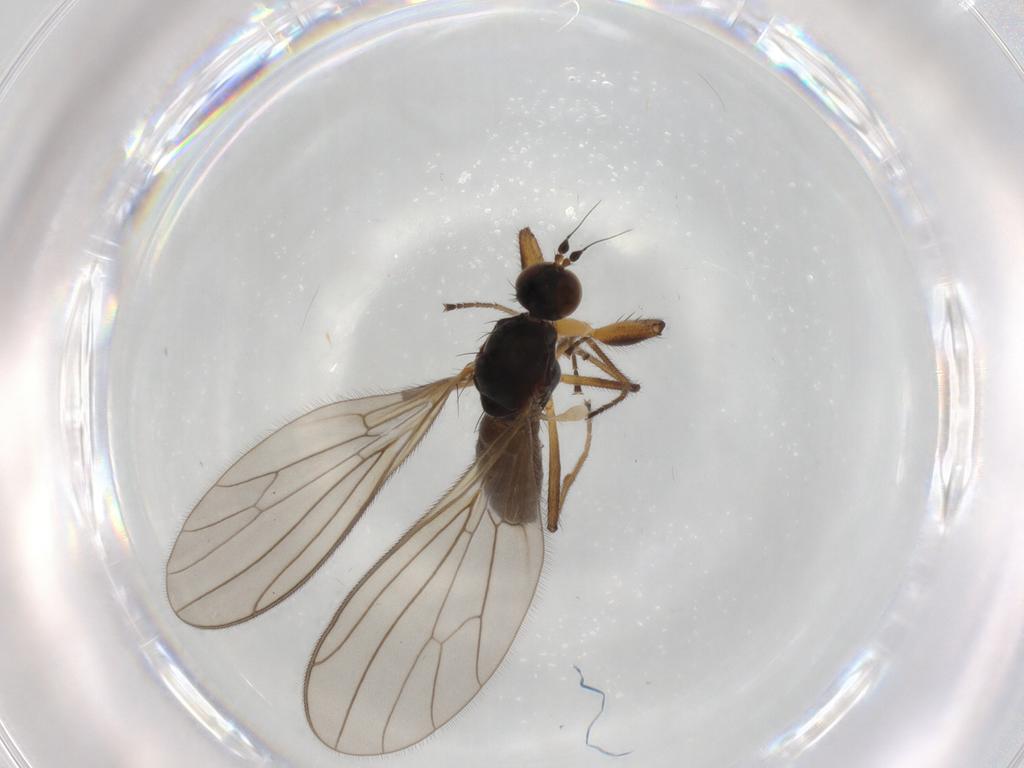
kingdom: Animalia
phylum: Arthropoda
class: Insecta
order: Diptera
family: Empididae
